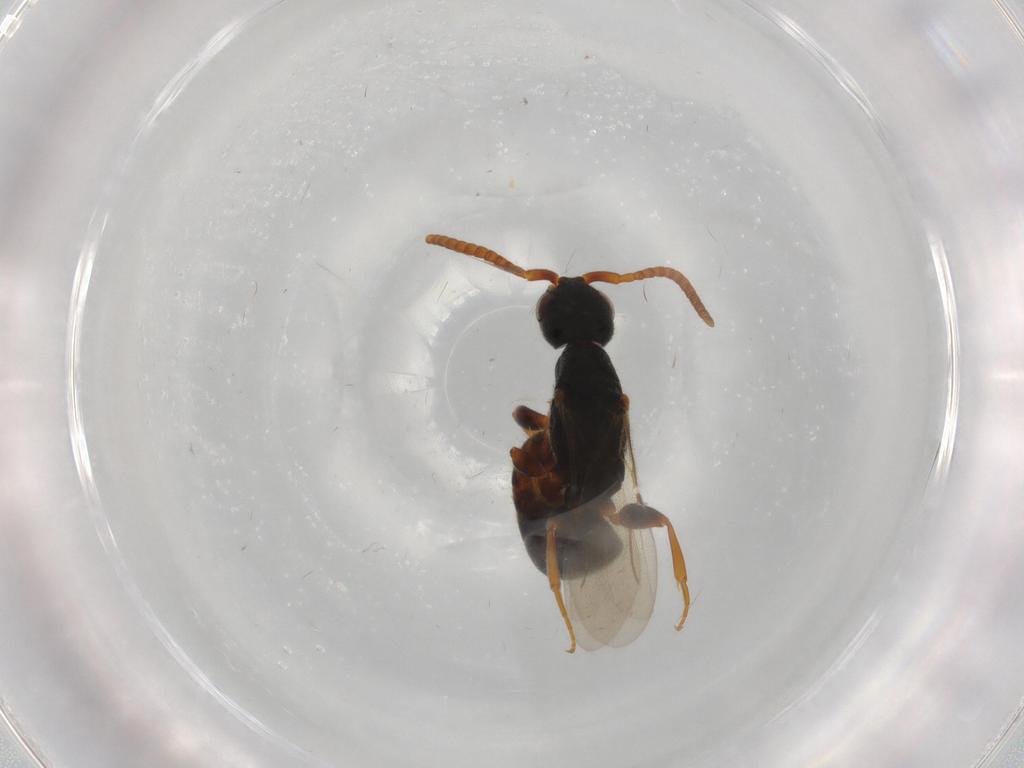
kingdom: Animalia
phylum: Arthropoda
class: Insecta
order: Hymenoptera
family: Bethylidae
